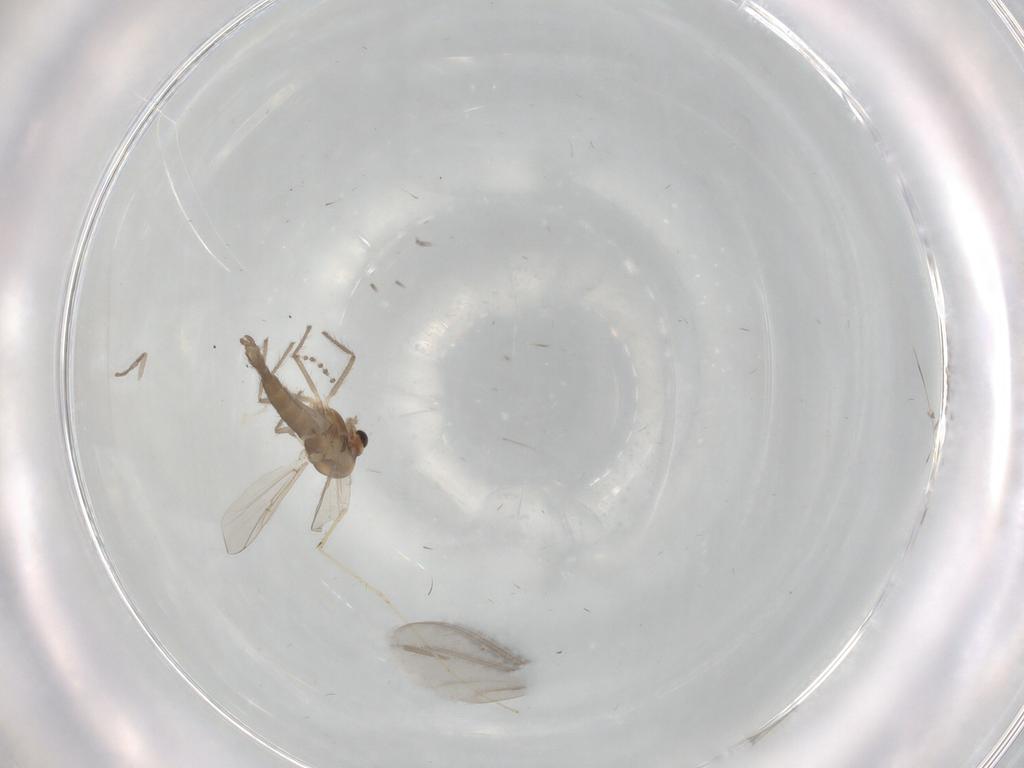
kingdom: Animalia
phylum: Arthropoda
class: Insecta
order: Diptera
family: Chironomidae
